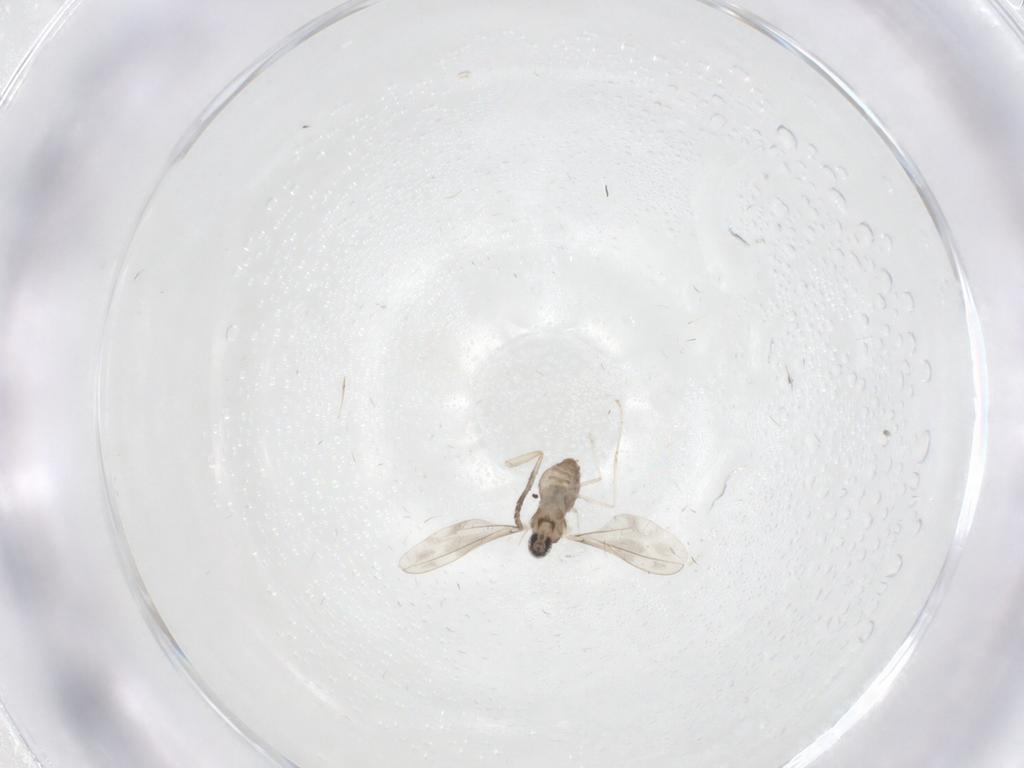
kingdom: Animalia
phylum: Arthropoda
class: Insecta
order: Diptera
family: Cecidomyiidae
